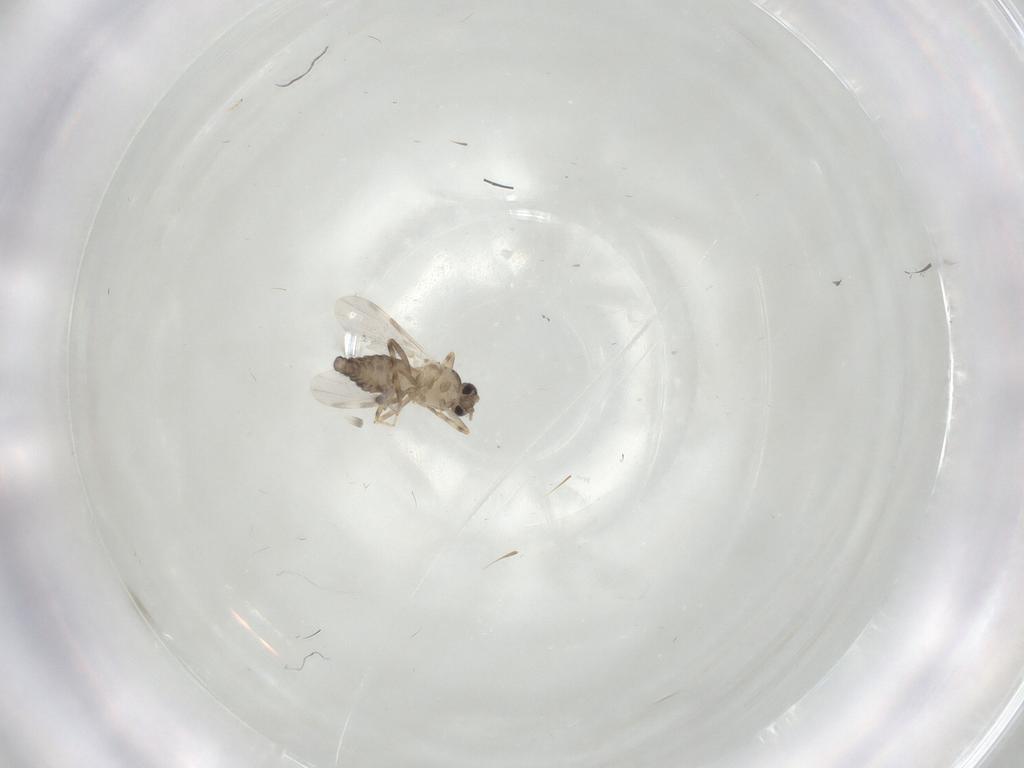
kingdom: Animalia
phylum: Arthropoda
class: Insecta
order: Diptera
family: Ceratopogonidae
